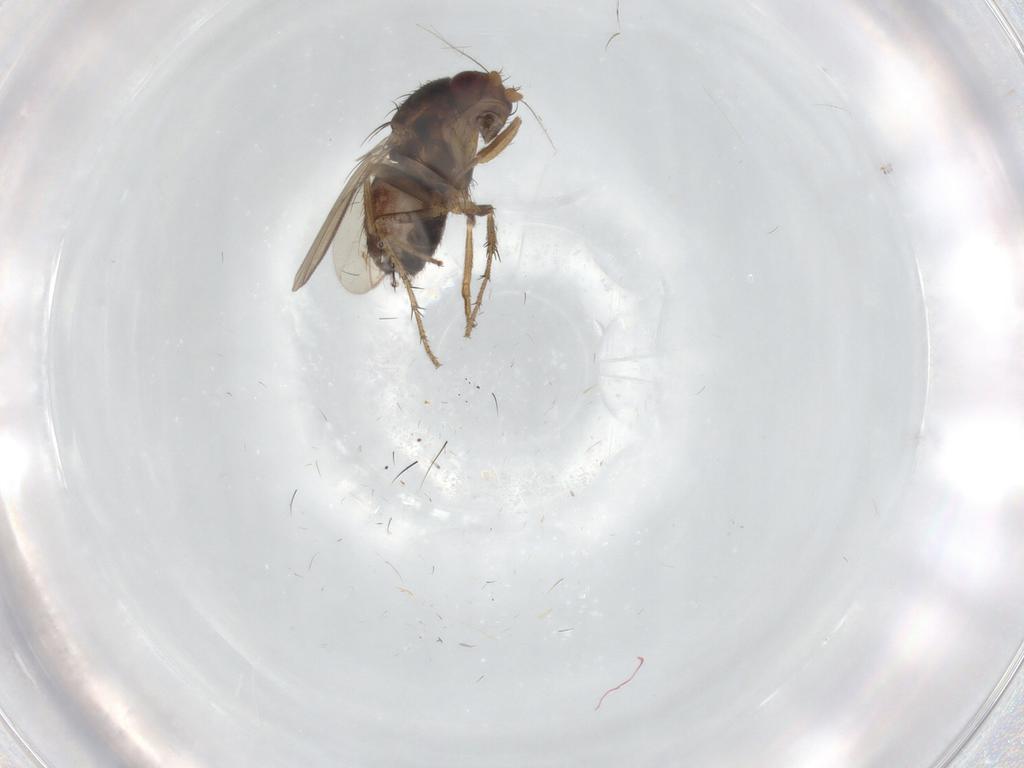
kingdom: Animalia
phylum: Arthropoda
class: Insecta
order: Diptera
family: Sphaeroceridae
